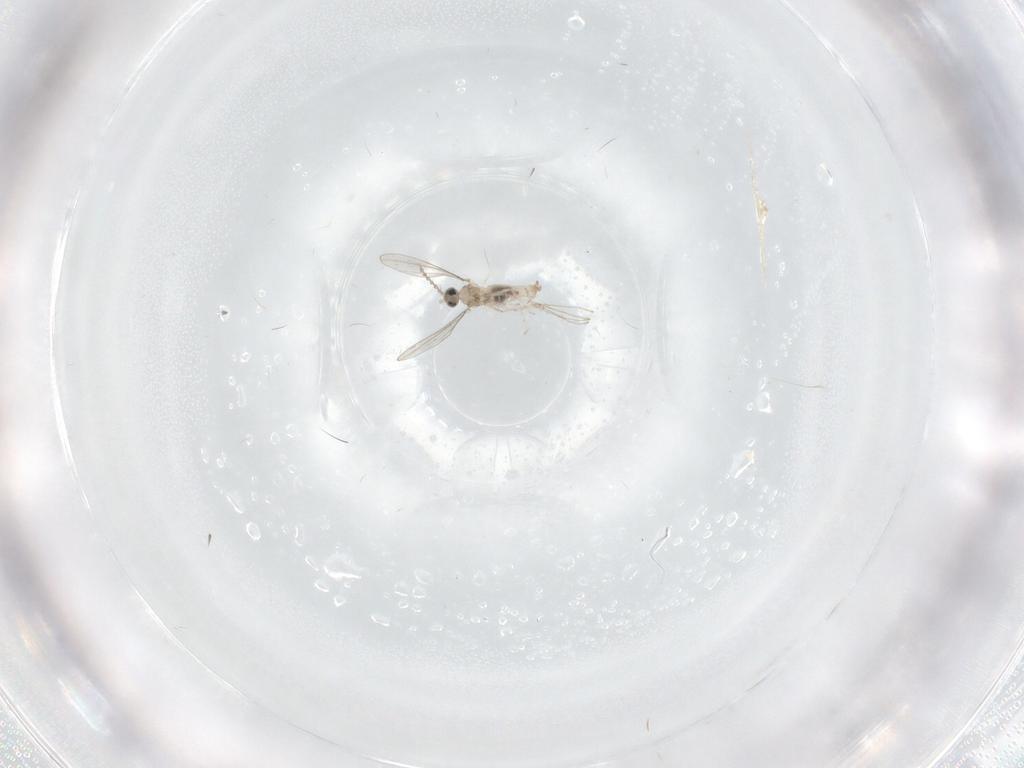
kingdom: Animalia
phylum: Arthropoda
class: Insecta
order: Diptera
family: Cecidomyiidae
